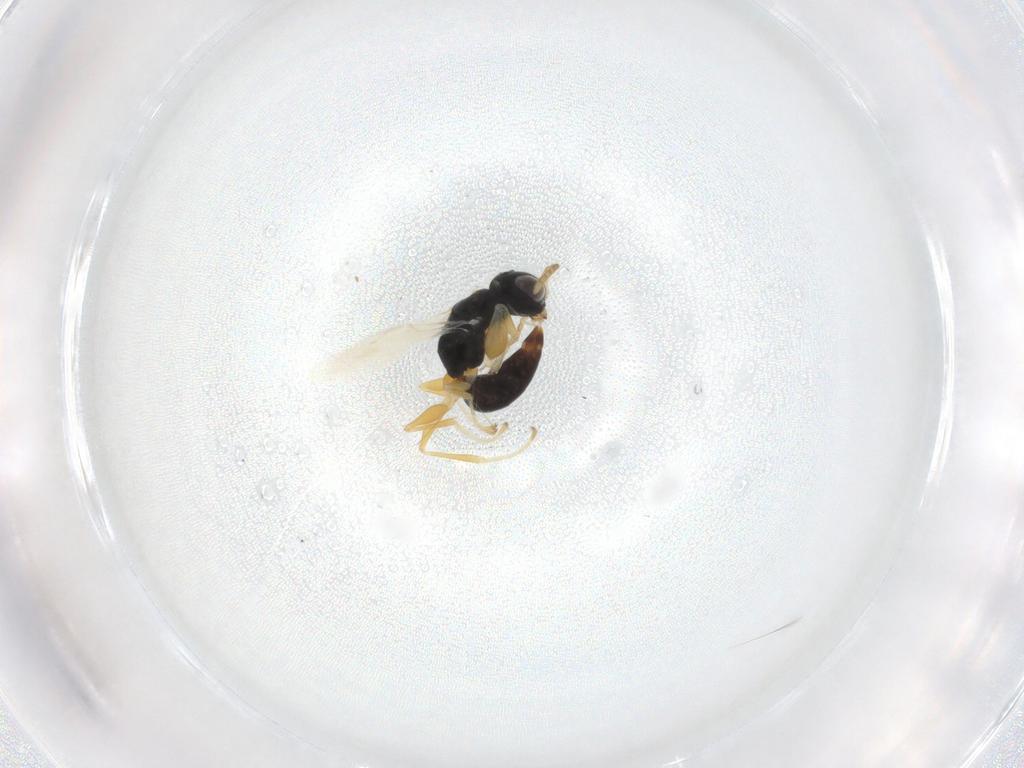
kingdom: Animalia
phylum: Arthropoda
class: Insecta
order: Hymenoptera
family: Dryinidae
